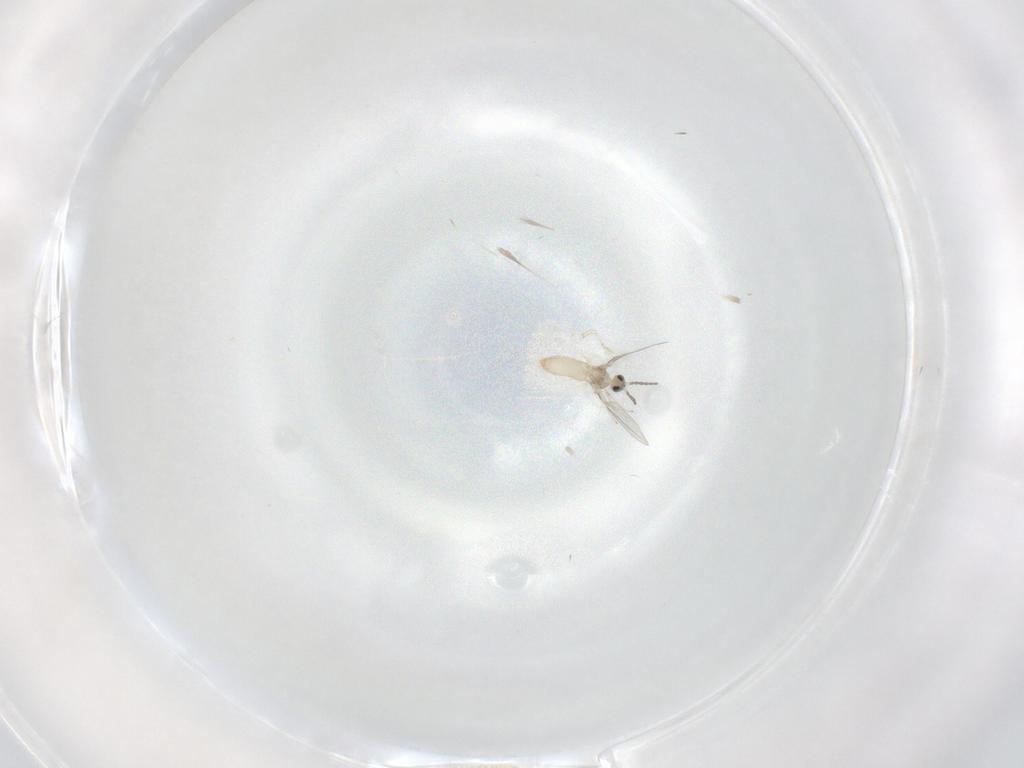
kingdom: Animalia
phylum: Arthropoda
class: Insecta
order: Diptera
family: Cecidomyiidae
